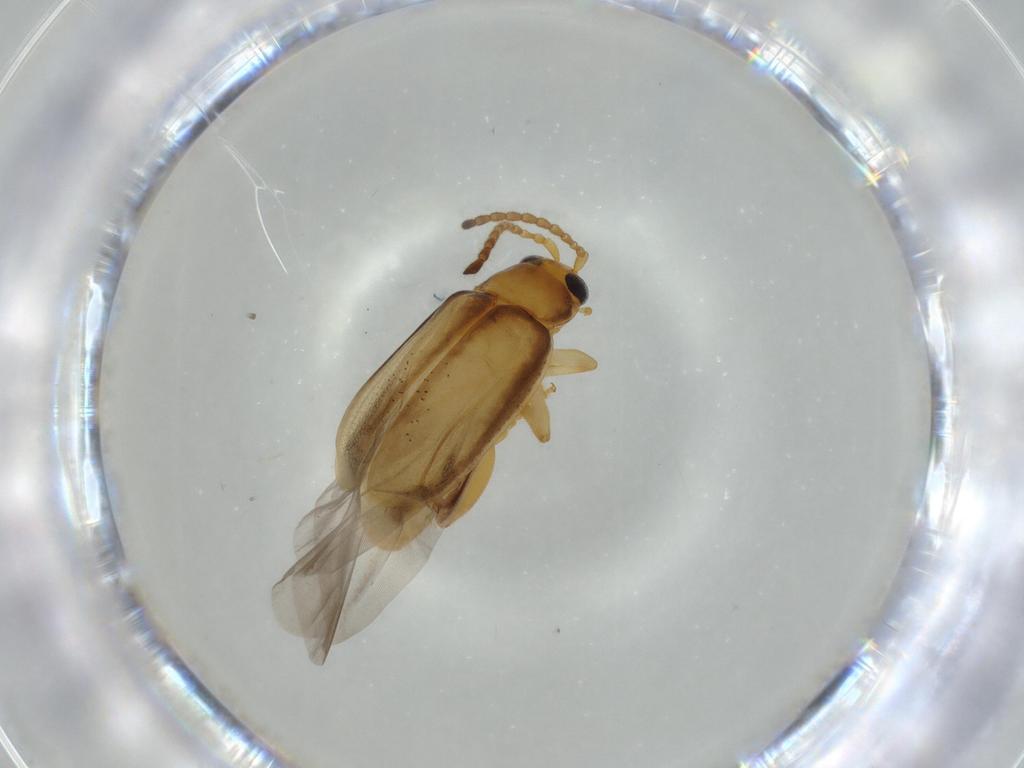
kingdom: Animalia
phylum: Arthropoda
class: Insecta
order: Coleoptera
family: Chrysomelidae
